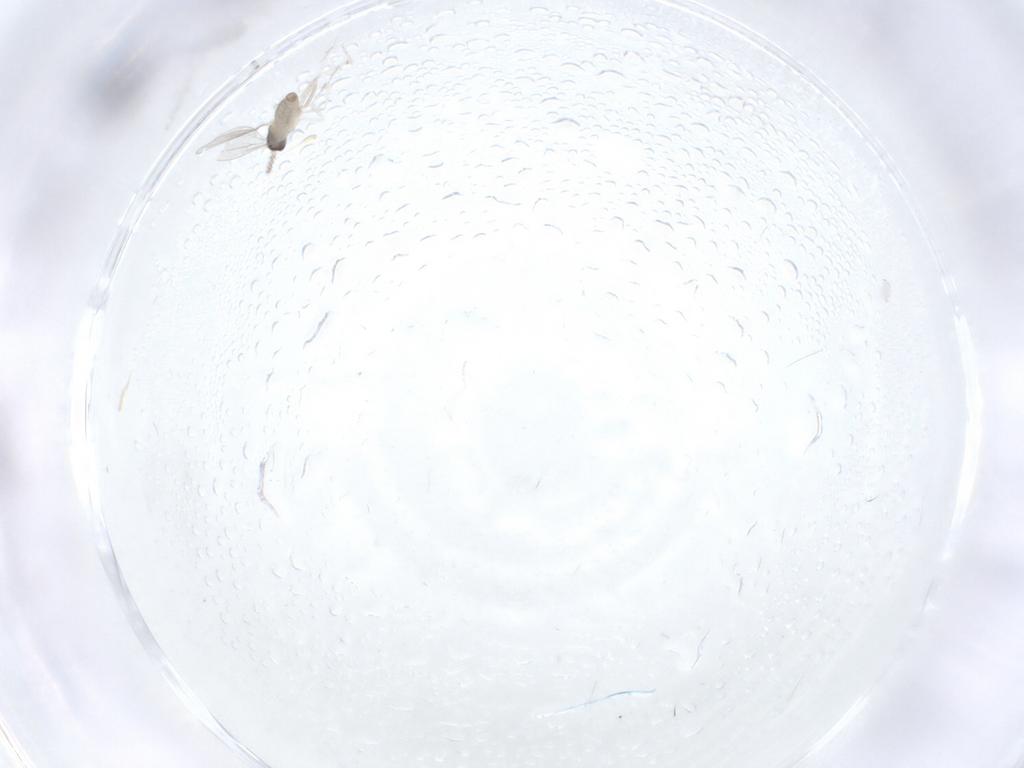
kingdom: Animalia
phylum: Arthropoda
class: Insecta
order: Diptera
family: Cecidomyiidae
